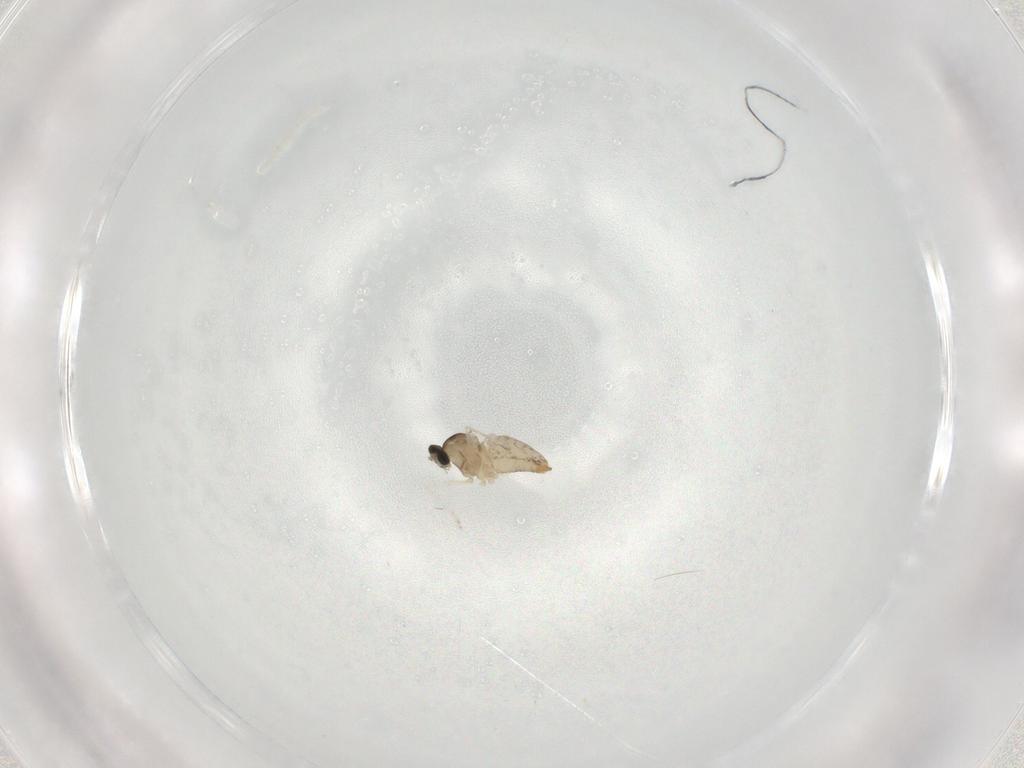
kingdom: Animalia
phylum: Arthropoda
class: Insecta
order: Diptera
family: Cecidomyiidae
